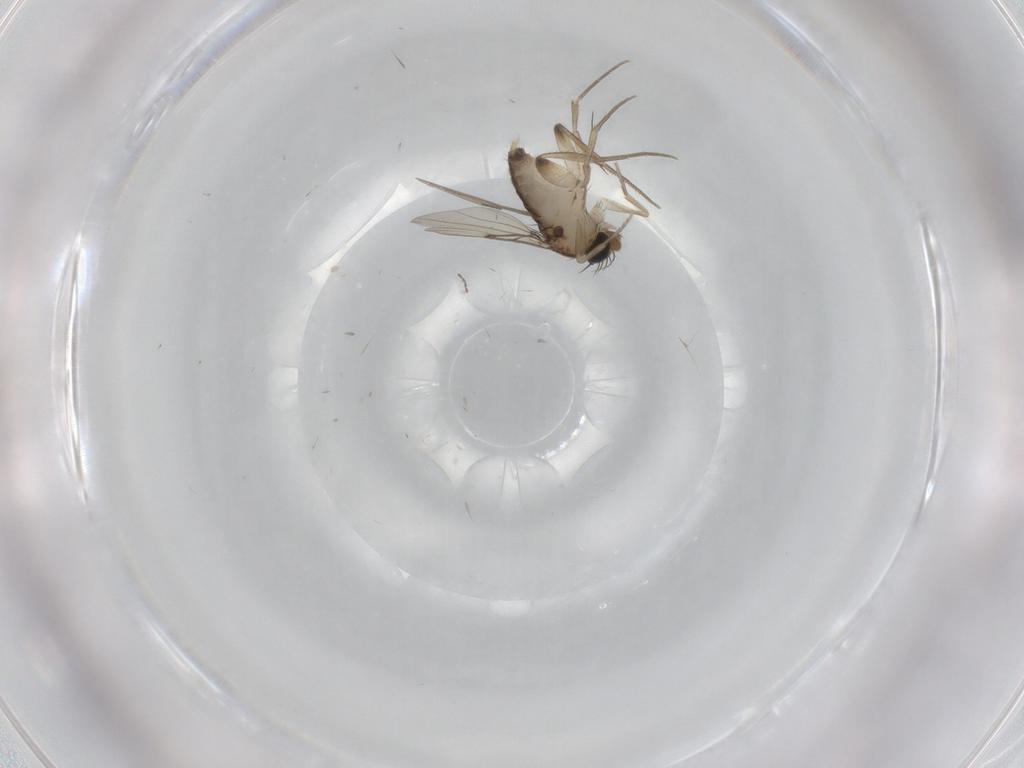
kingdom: Animalia
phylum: Arthropoda
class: Insecta
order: Diptera
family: Phoridae
